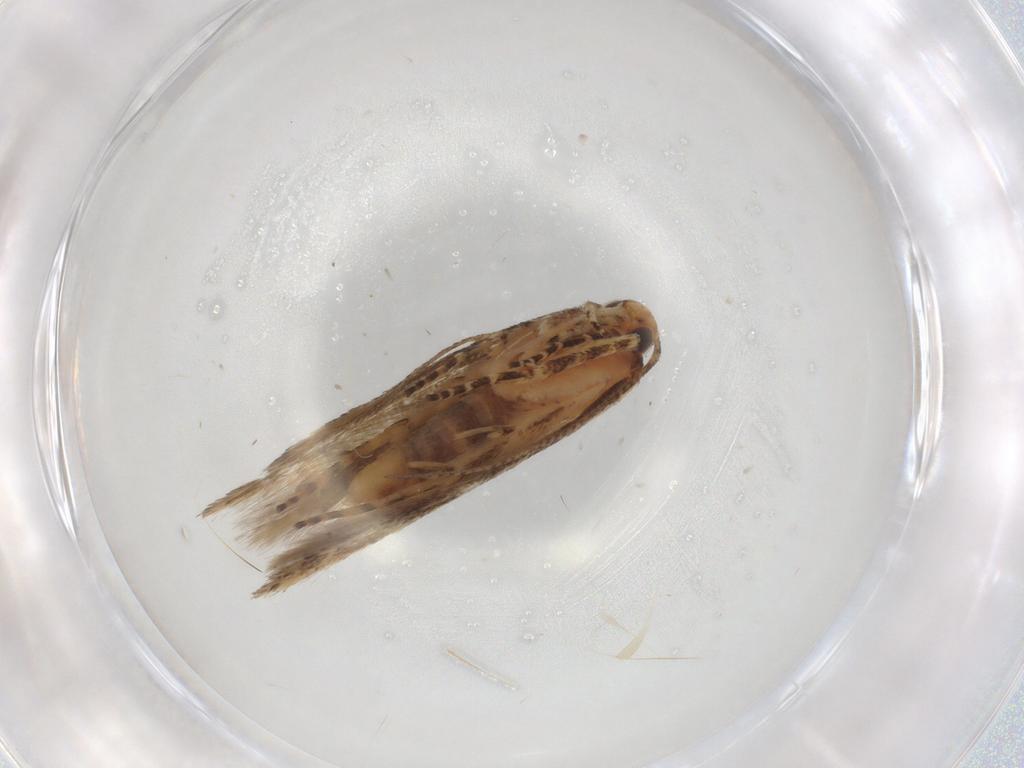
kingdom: Animalia
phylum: Arthropoda
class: Insecta
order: Lepidoptera
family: Gelechiidae
